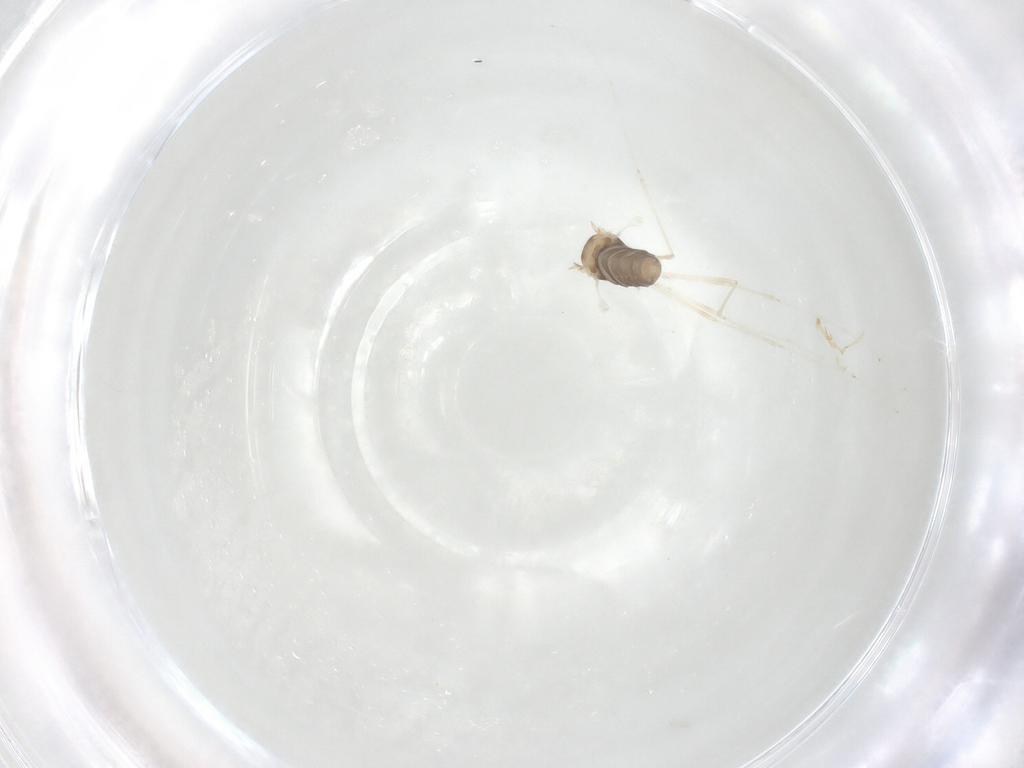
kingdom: Animalia
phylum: Arthropoda
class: Insecta
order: Diptera
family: Cecidomyiidae
